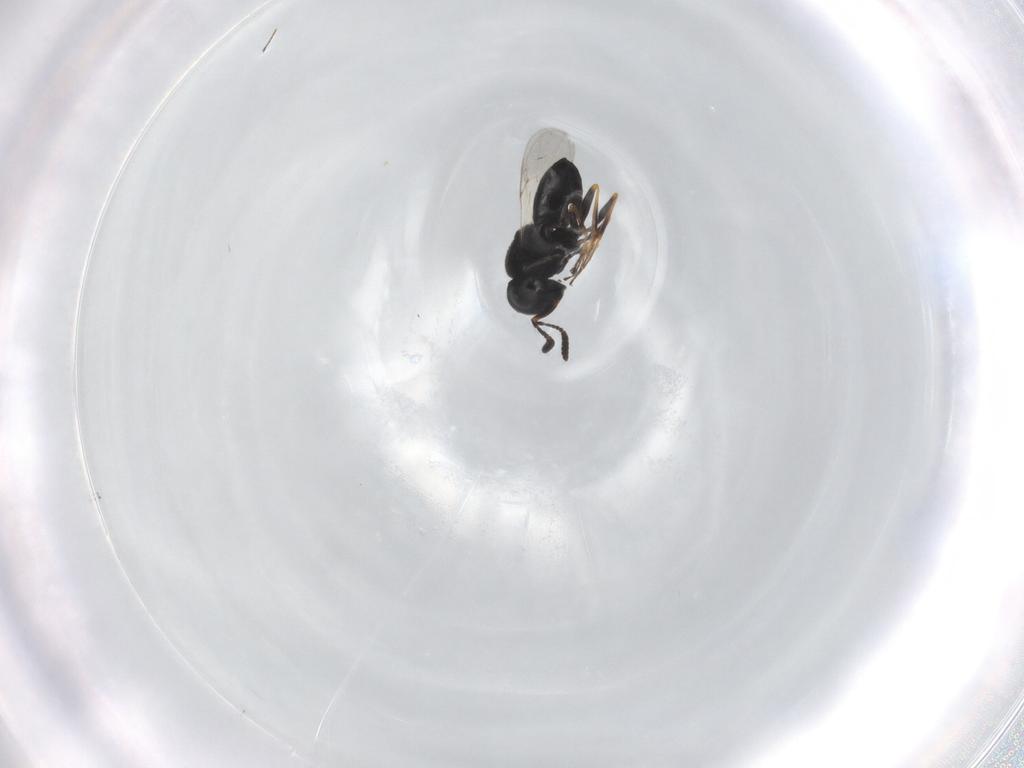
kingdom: Animalia
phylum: Arthropoda
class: Insecta
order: Hymenoptera
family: Scelionidae
